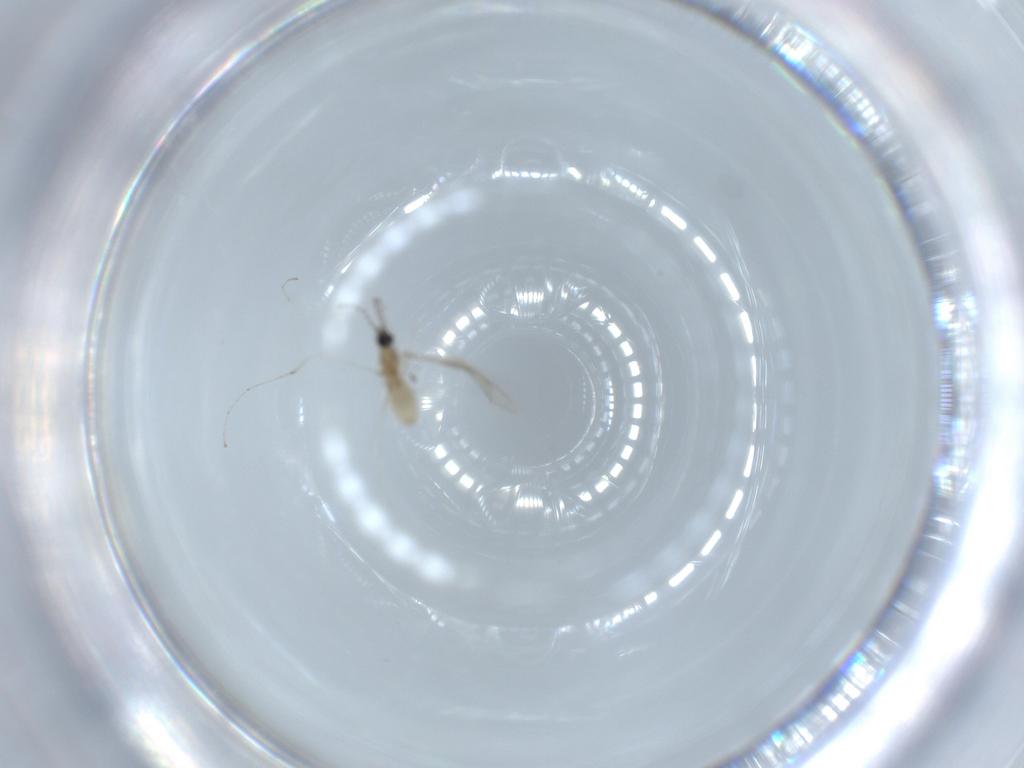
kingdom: Animalia
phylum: Arthropoda
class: Insecta
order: Diptera
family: Cecidomyiidae
